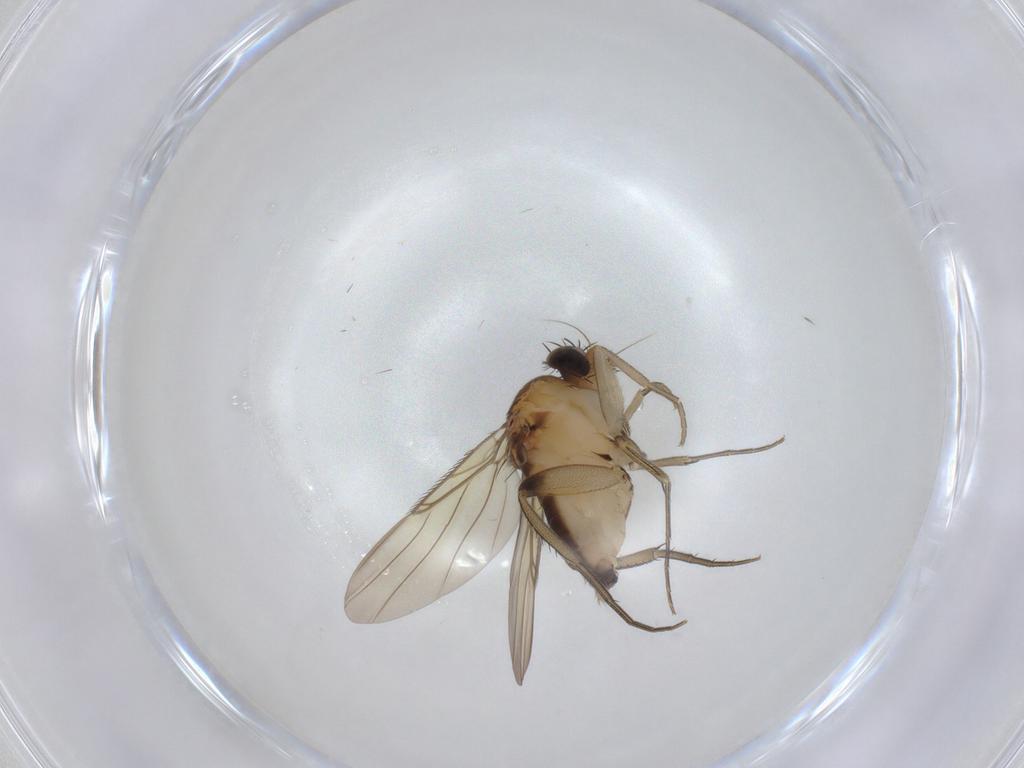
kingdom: Animalia
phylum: Arthropoda
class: Insecta
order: Diptera
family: Phoridae
